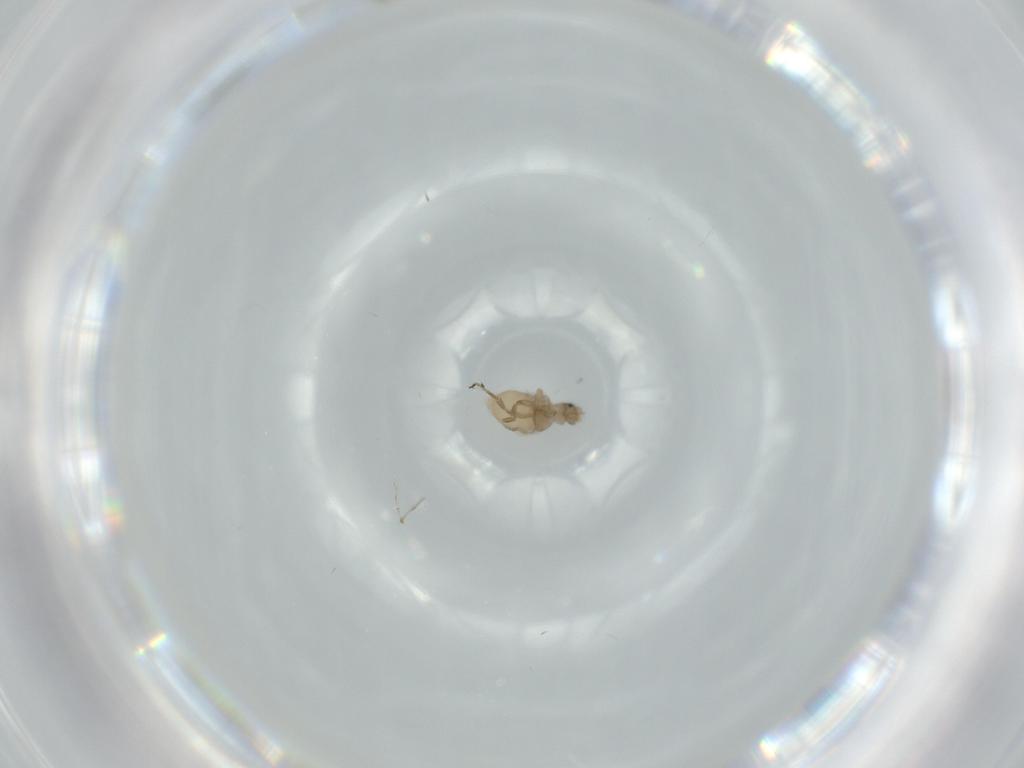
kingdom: Animalia
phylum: Arthropoda
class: Insecta
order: Diptera
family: Phoridae
